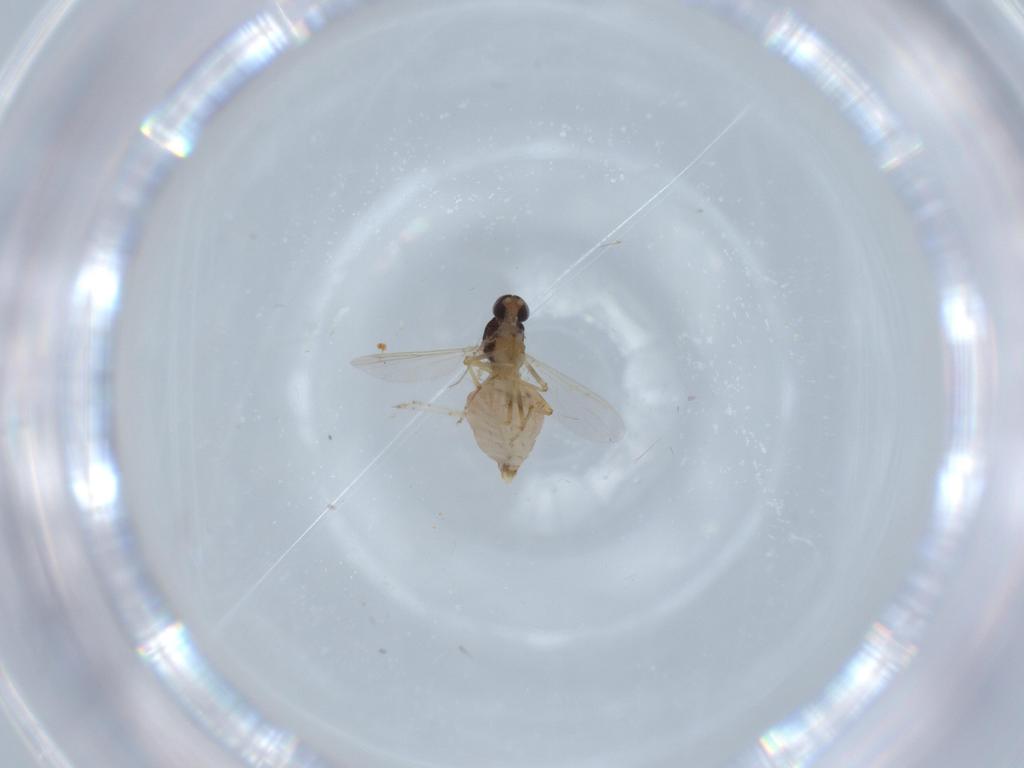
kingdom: Animalia
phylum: Arthropoda
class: Insecta
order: Diptera
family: Ceratopogonidae
